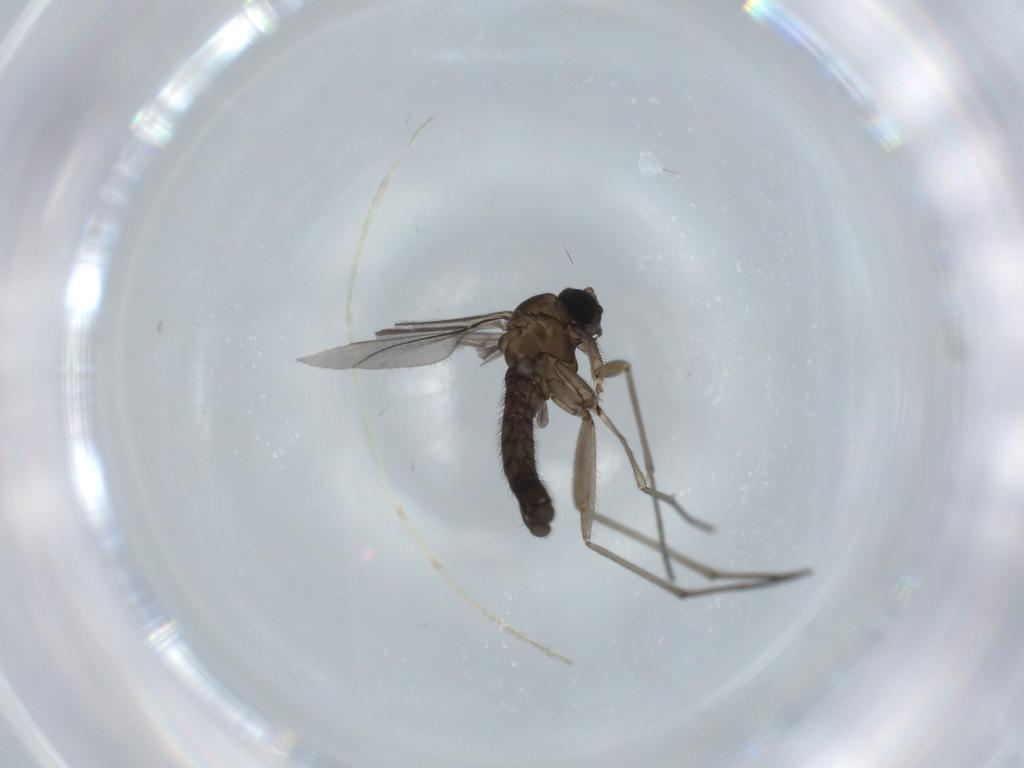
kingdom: Animalia
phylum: Arthropoda
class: Insecta
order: Diptera
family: Sciaridae
